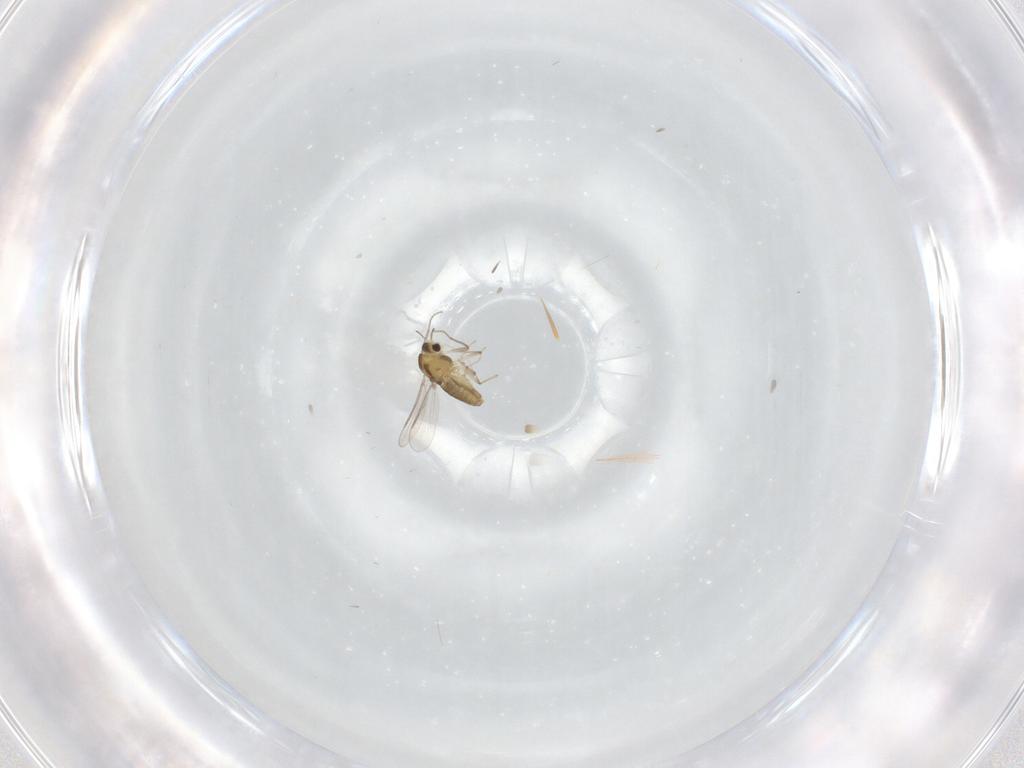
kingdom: Animalia
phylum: Arthropoda
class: Insecta
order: Diptera
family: Chironomidae
